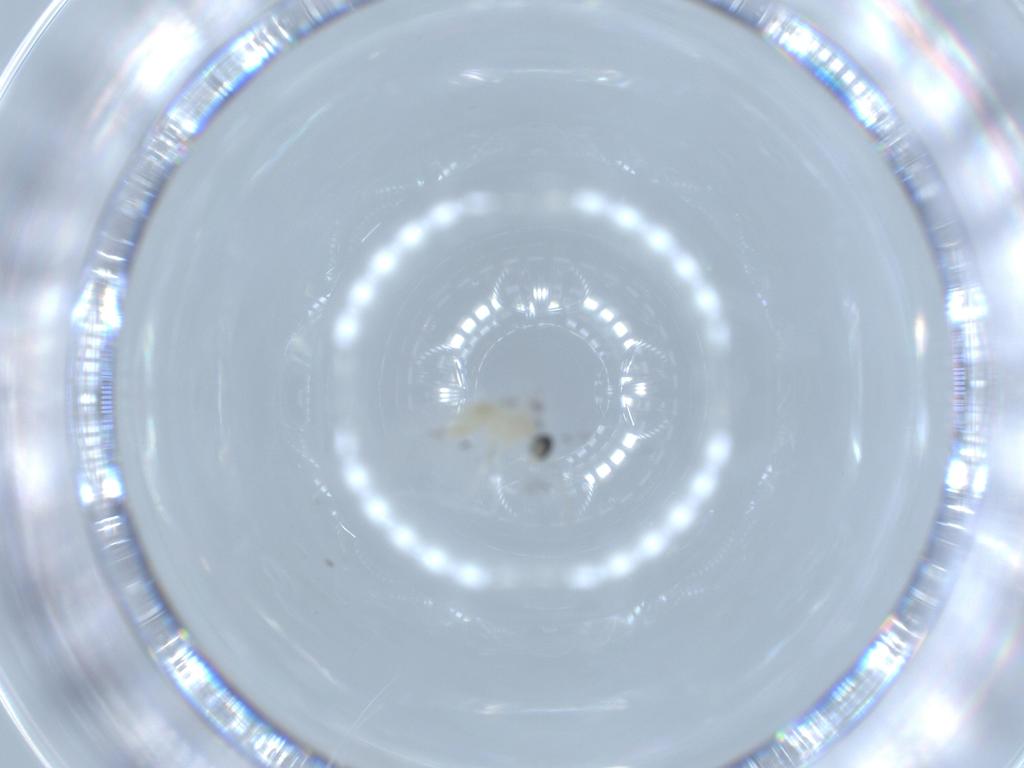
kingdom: Animalia
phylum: Arthropoda
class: Insecta
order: Diptera
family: Cecidomyiidae
